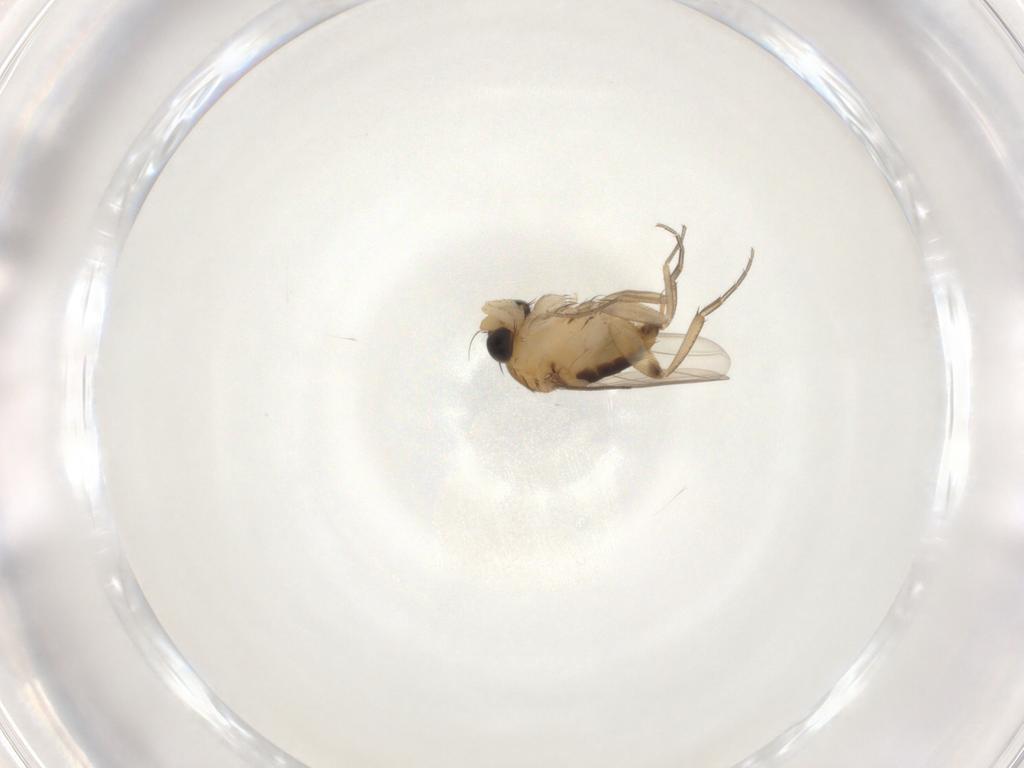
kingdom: Animalia
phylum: Arthropoda
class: Insecta
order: Diptera
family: Phoridae
